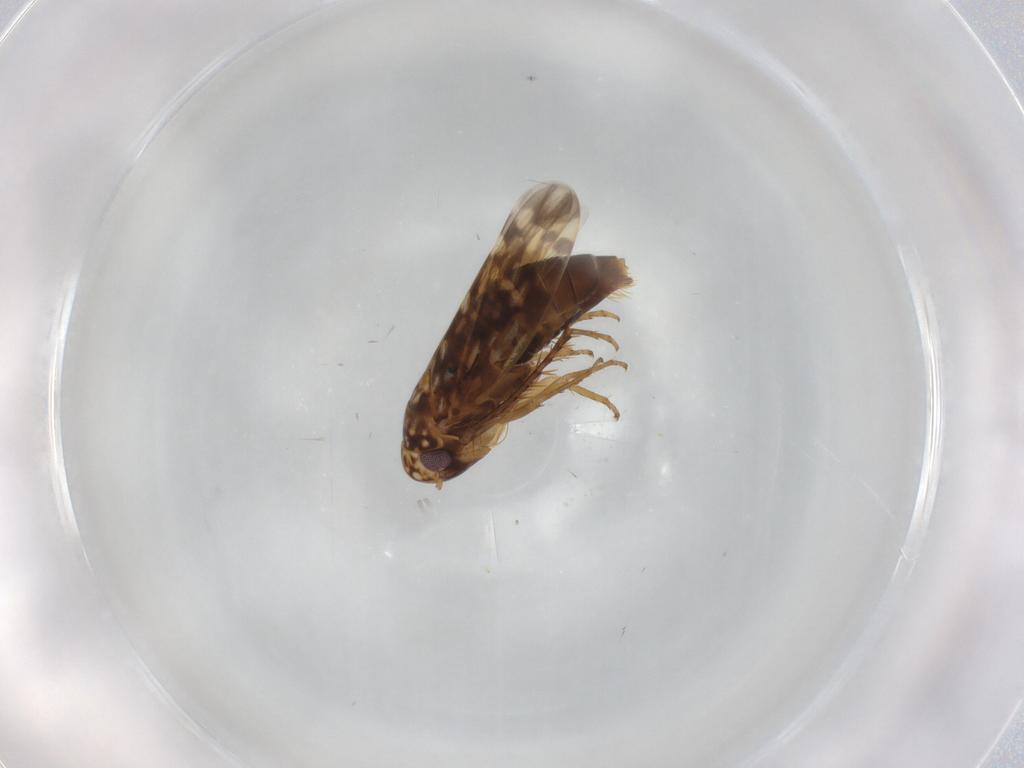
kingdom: Animalia
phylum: Arthropoda
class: Insecta
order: Hemiptera
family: Cicadellidae
